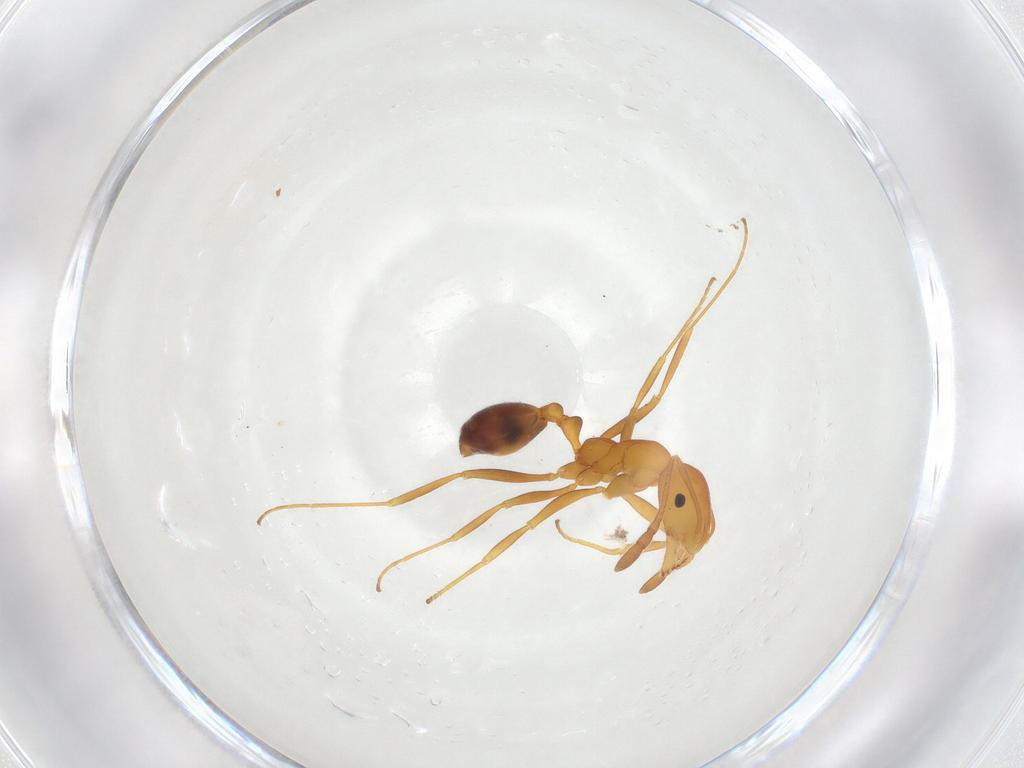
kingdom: Animalia
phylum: Arthropoda
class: Insecta
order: Hymenoptera
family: Formicidae
